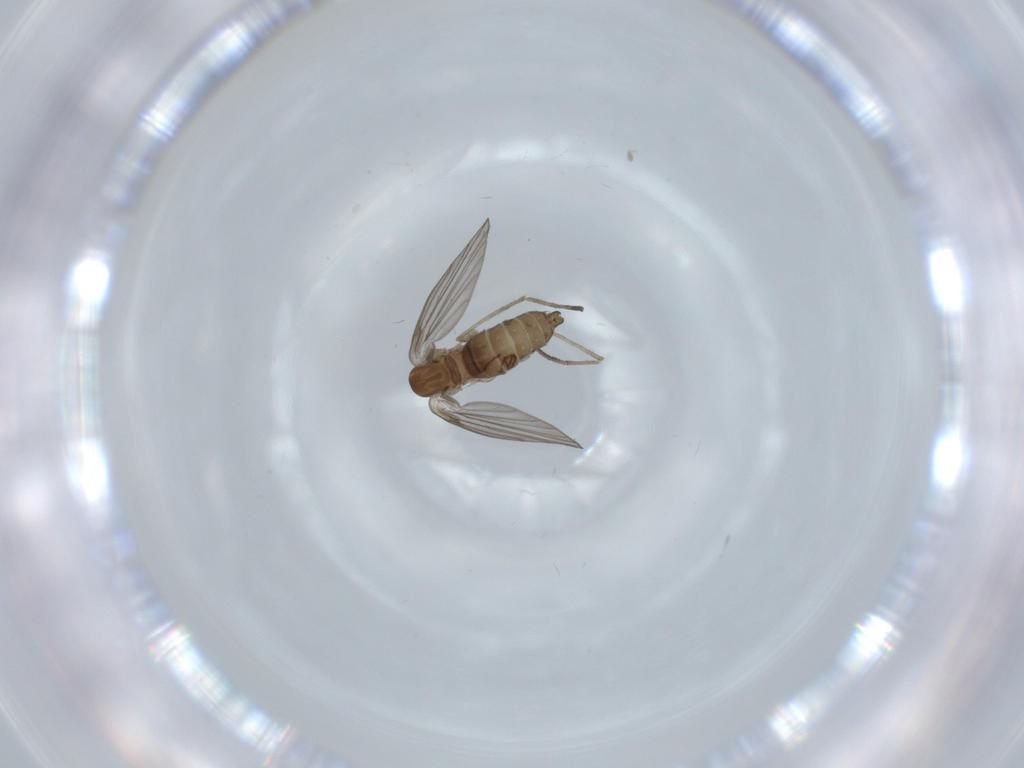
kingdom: Animalia
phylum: Arthropoda
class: Insecta
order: Diptera
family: Psychodidae
